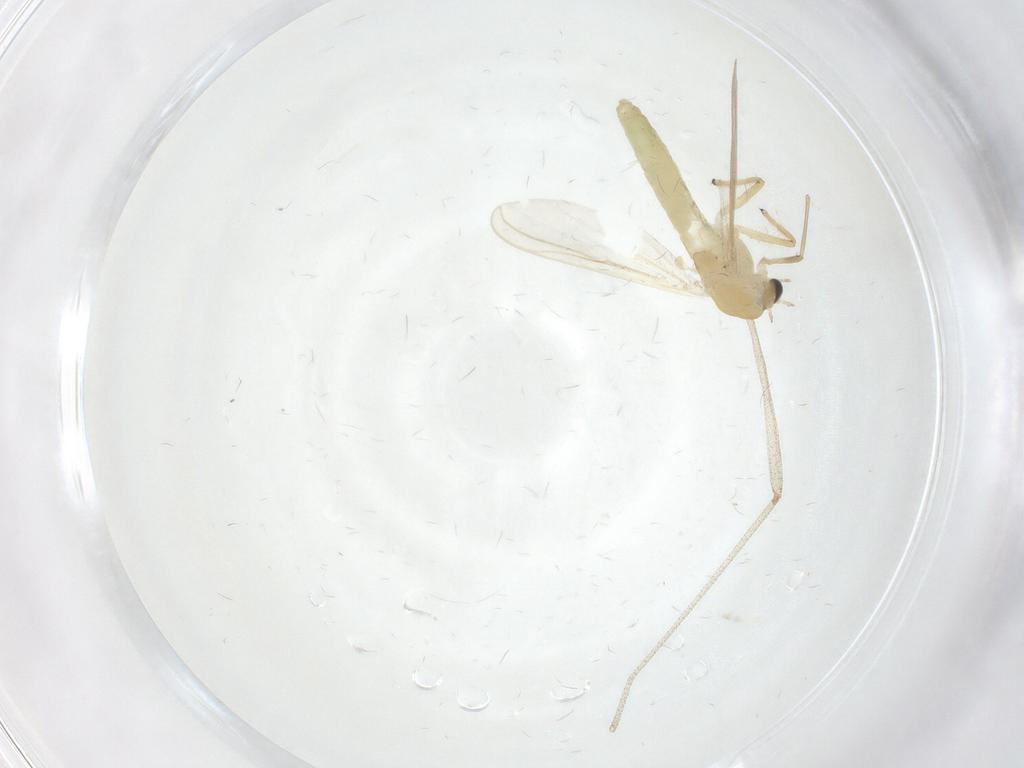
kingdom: Animalia
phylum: Arthropoda
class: Insecta
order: Diptera
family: Chironomidae
